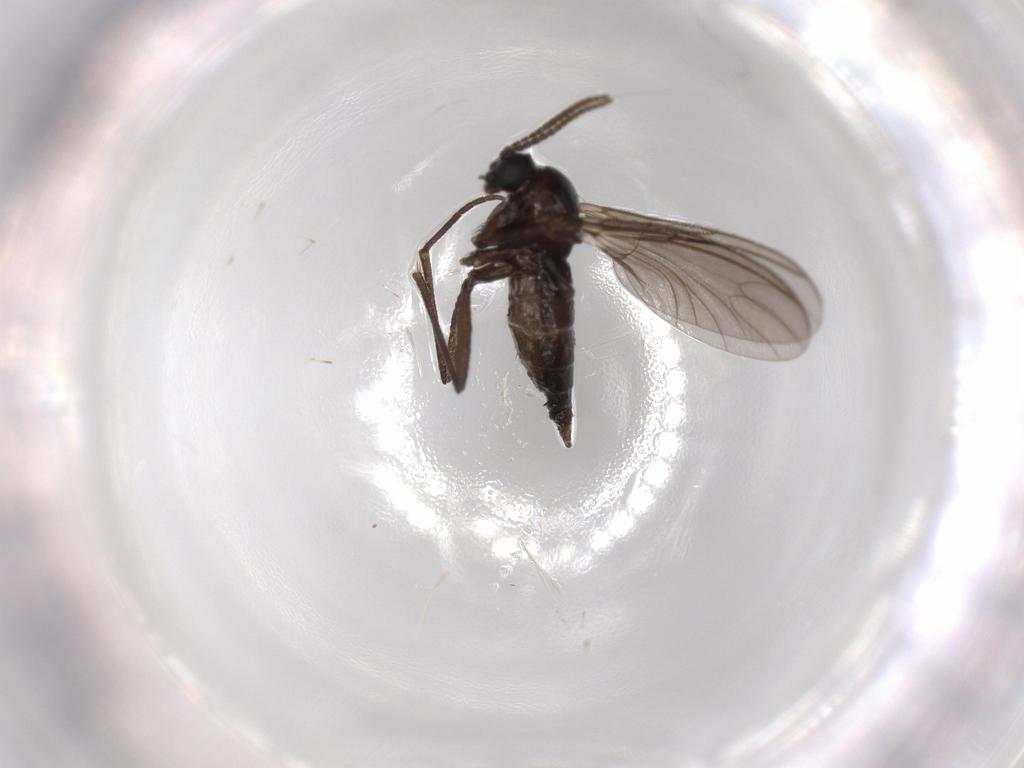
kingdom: Animalia
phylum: Arthropoda
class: Insecta
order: Diptera
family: Sciaridae
